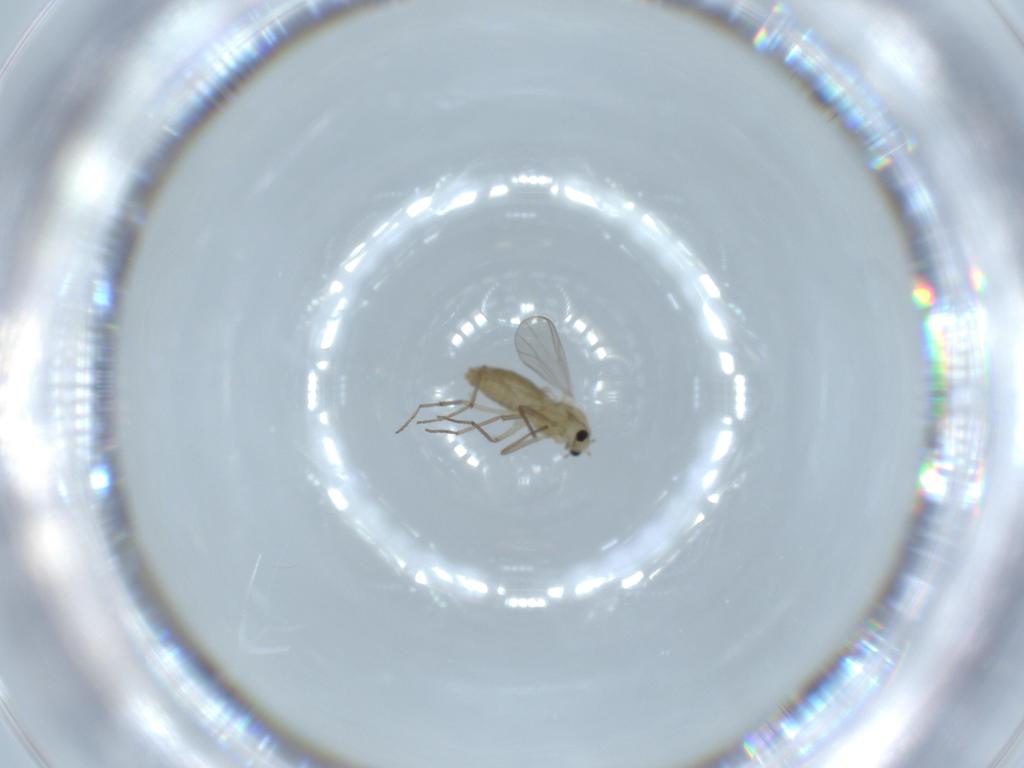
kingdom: Animalia
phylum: Arthropoda
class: Insecta
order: Diptera
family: Chironomidae
